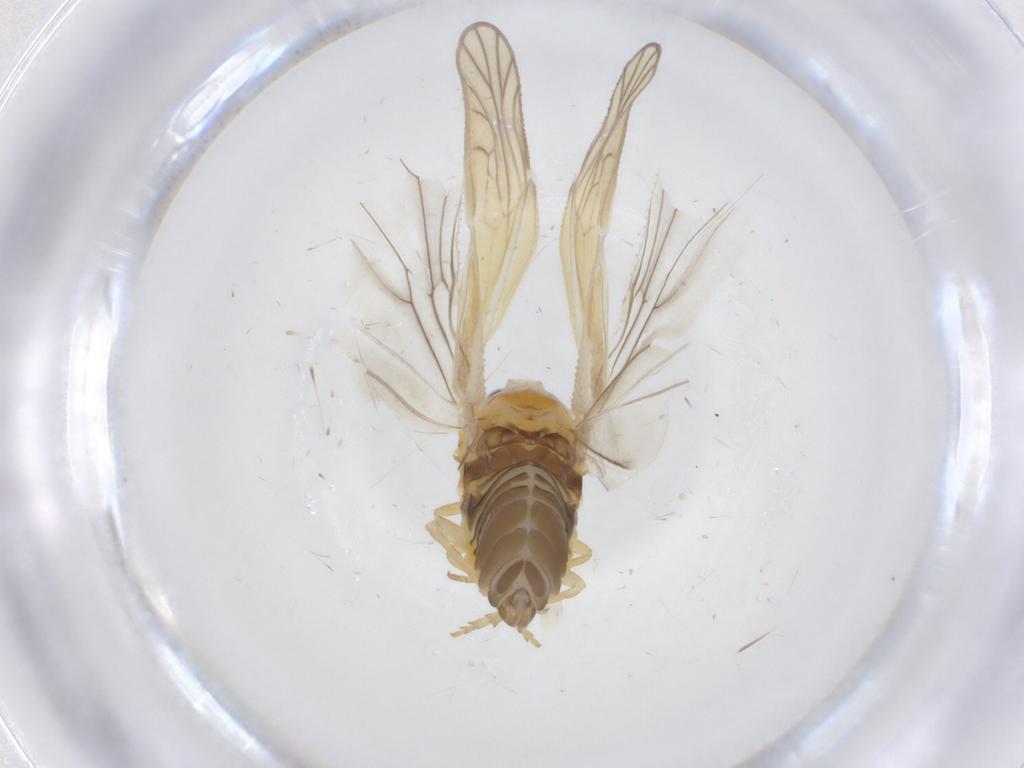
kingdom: Animalia
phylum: Arthropoda
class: Insecta
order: Hemiptera
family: Meenoplidae
